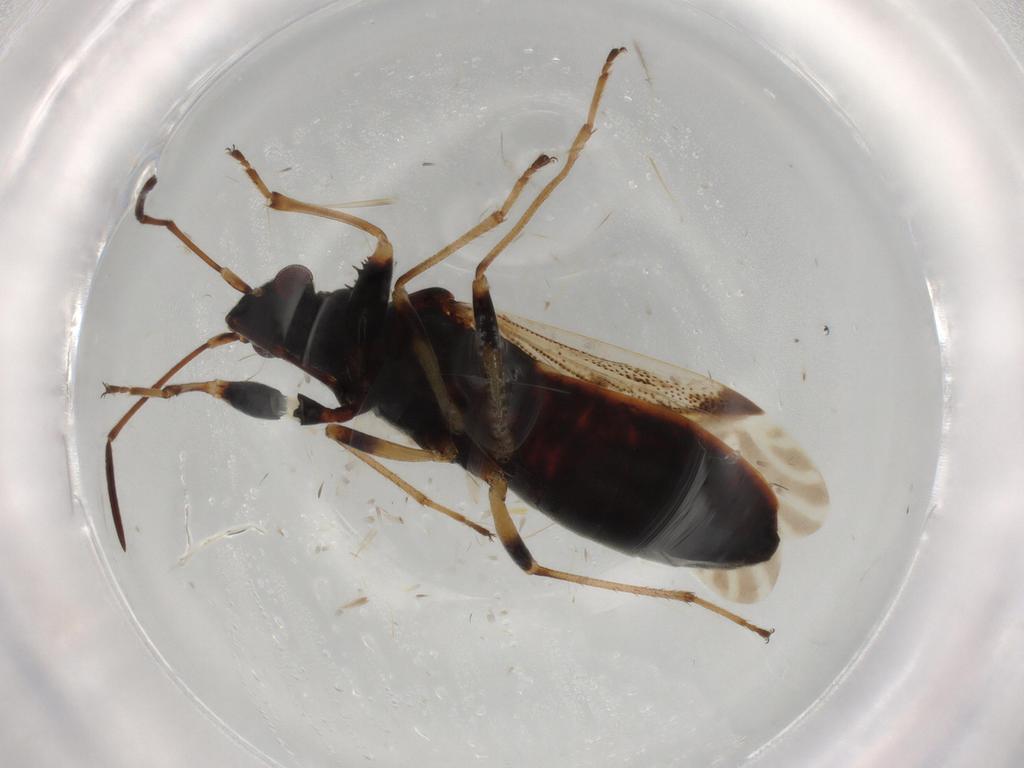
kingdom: Animalia
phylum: Arthropoda
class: Insecta
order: Hemiptera
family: Rhyparochromidae
